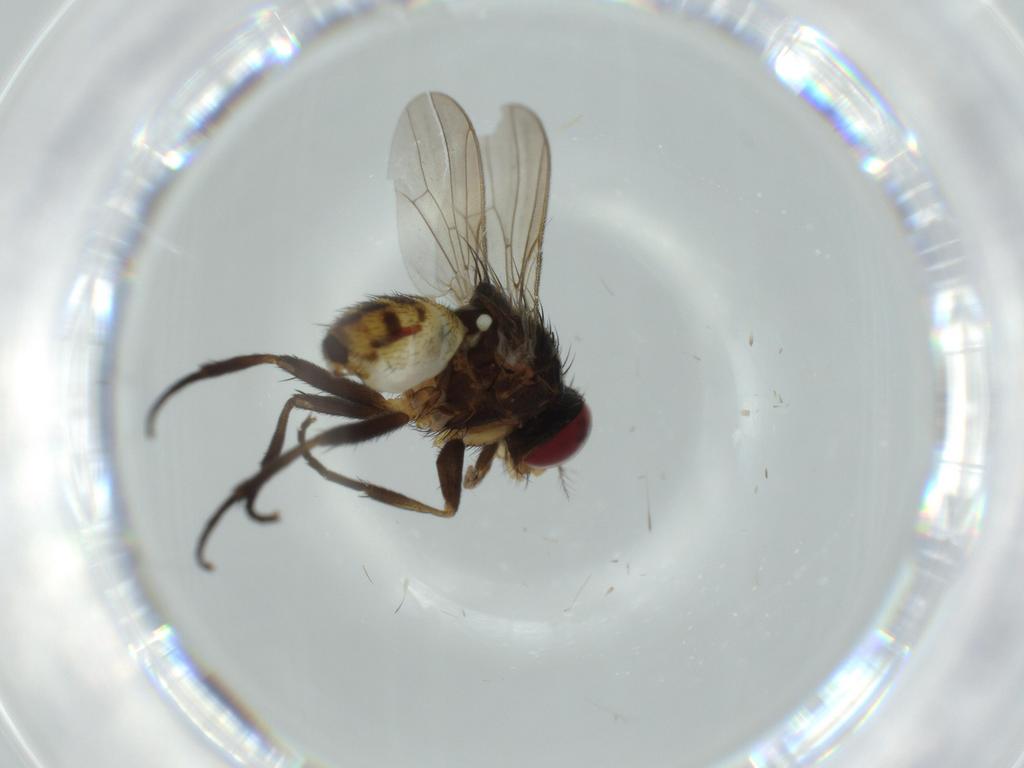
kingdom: Animalia
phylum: Arthropoda
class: Insecta
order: Diptera
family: Anthomyiidae
